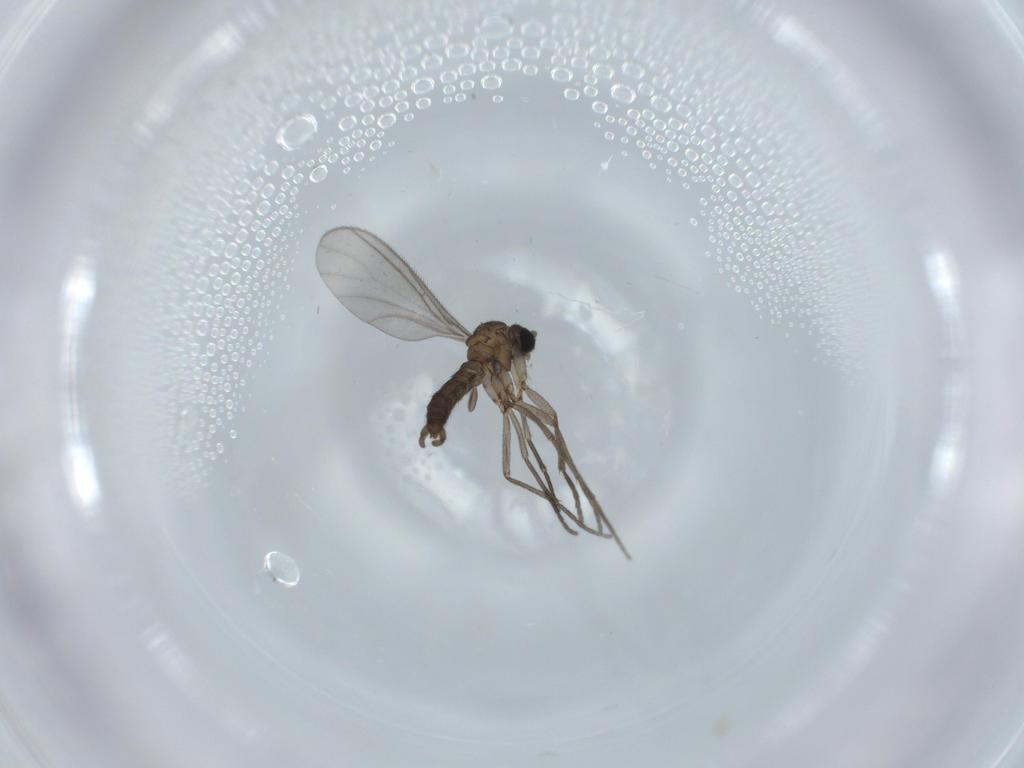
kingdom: Animalia
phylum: Arthropoda
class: Insecta
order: Diptera
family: Sciaridae
